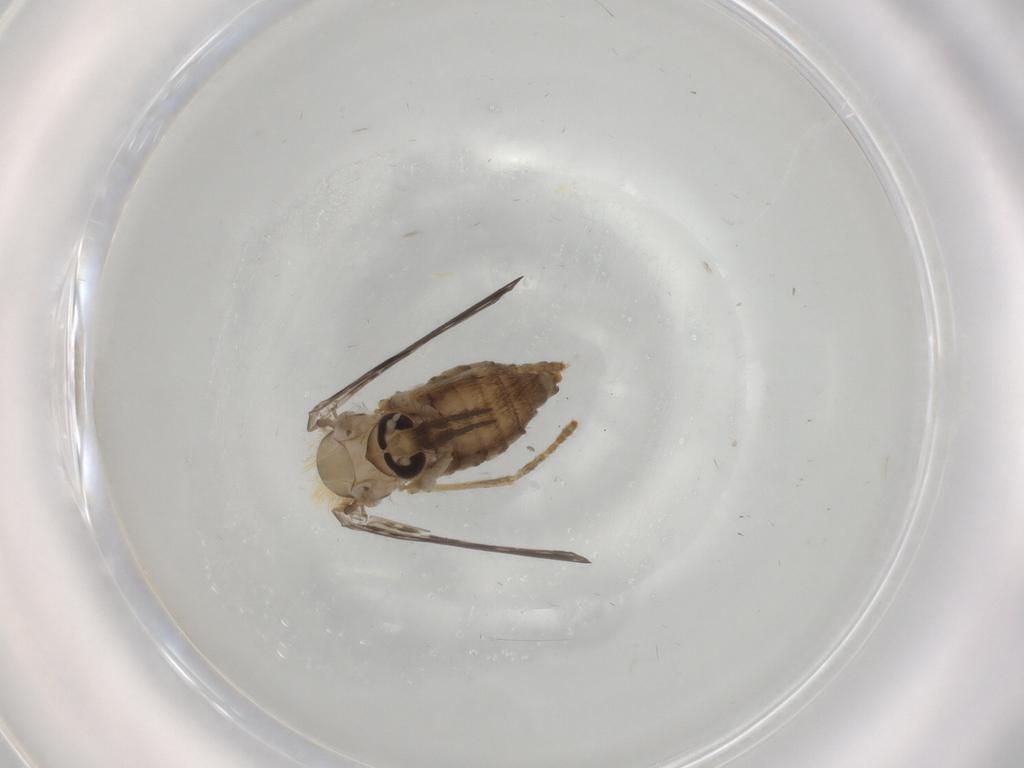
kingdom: Animalia
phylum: Arthropoda
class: Insecta
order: Diptera
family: Psychodidae
